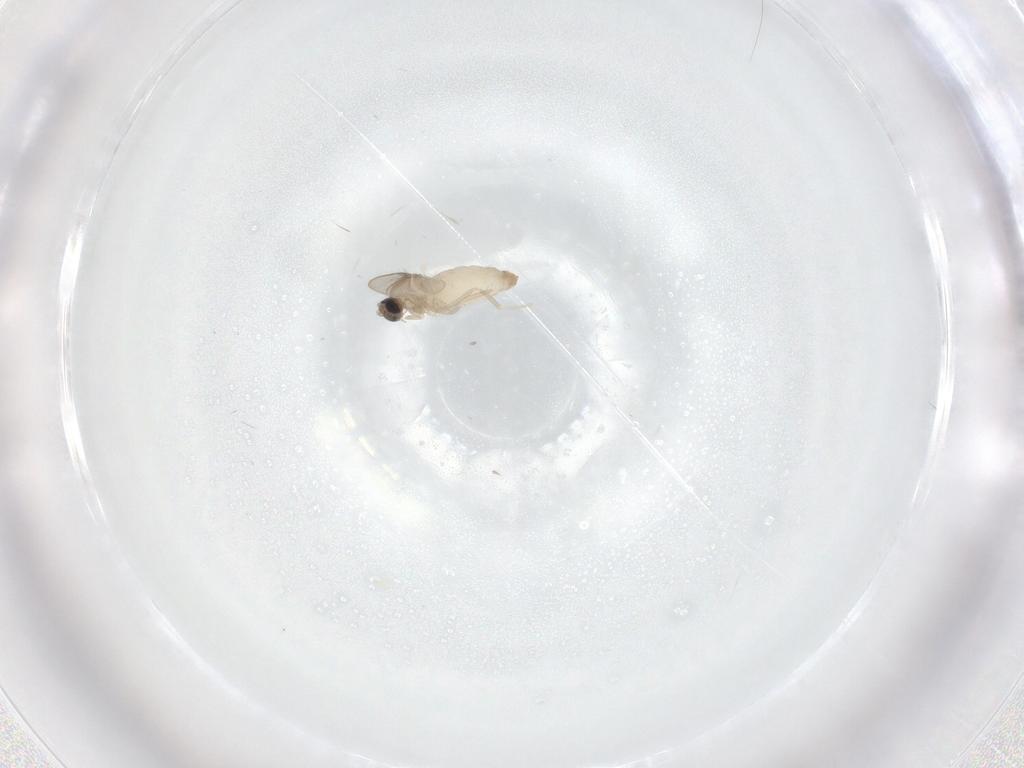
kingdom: Animalia
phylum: Arthropoda
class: Insecta
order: Diptera
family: Cecidomyiidae
